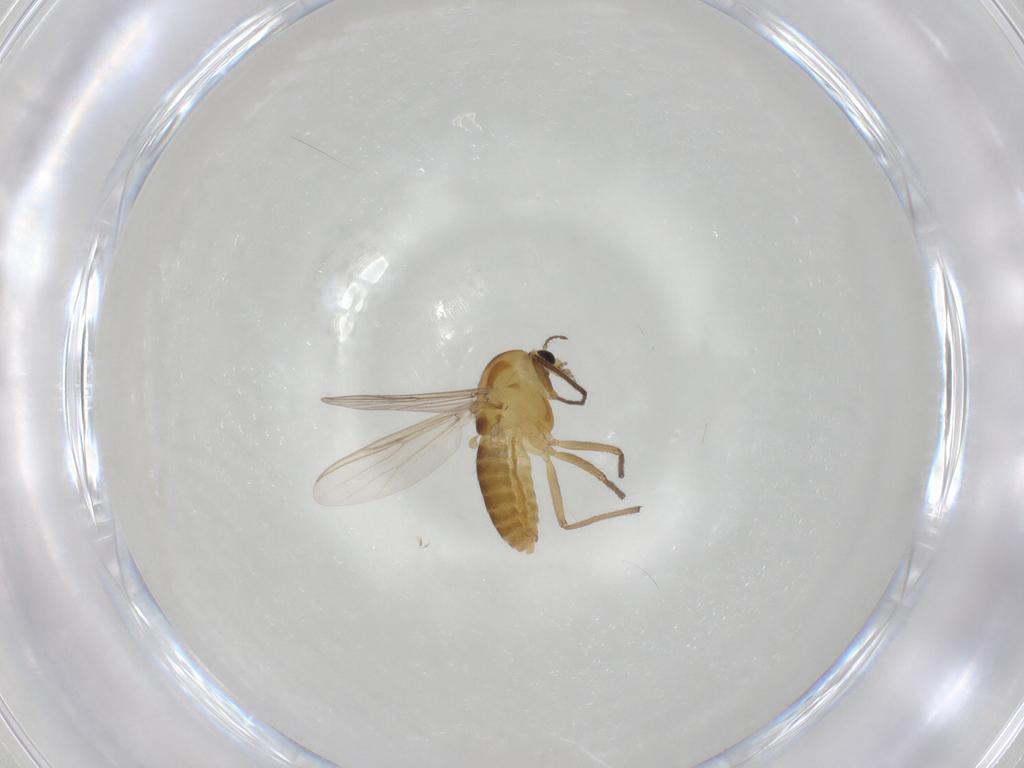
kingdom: Animalia
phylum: Arthropoda
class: Insecta
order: Diptera
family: Chironomidae
